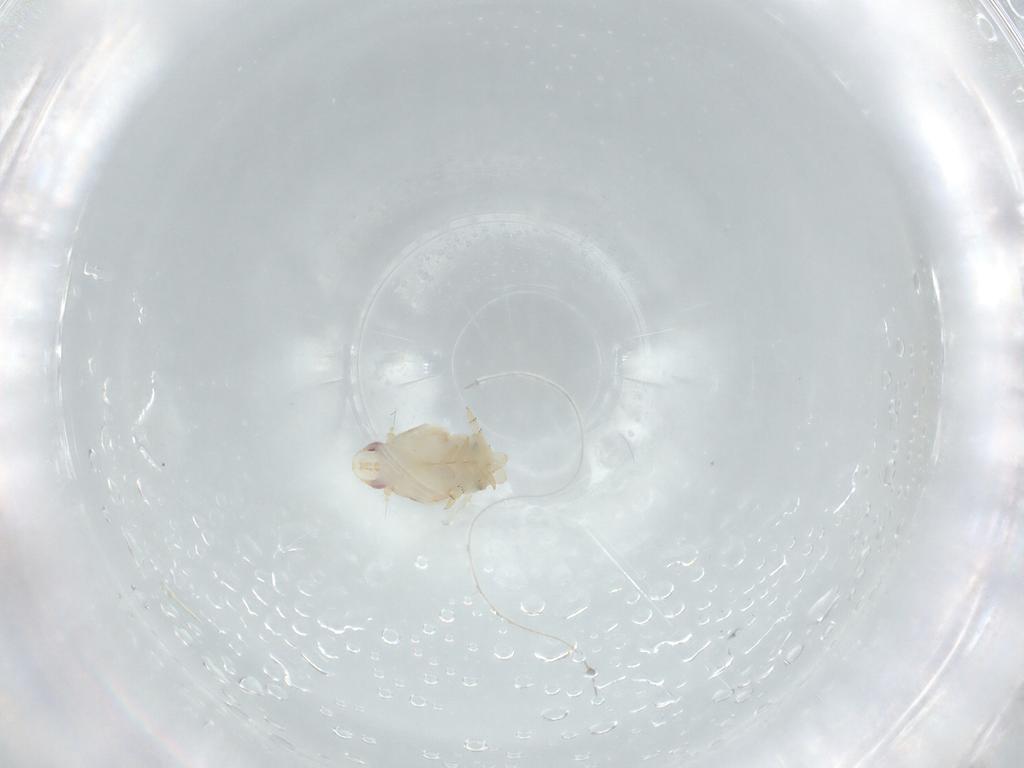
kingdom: Animalia
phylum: Arthropoda
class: Insecta
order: Hemiptera
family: Flatidae
